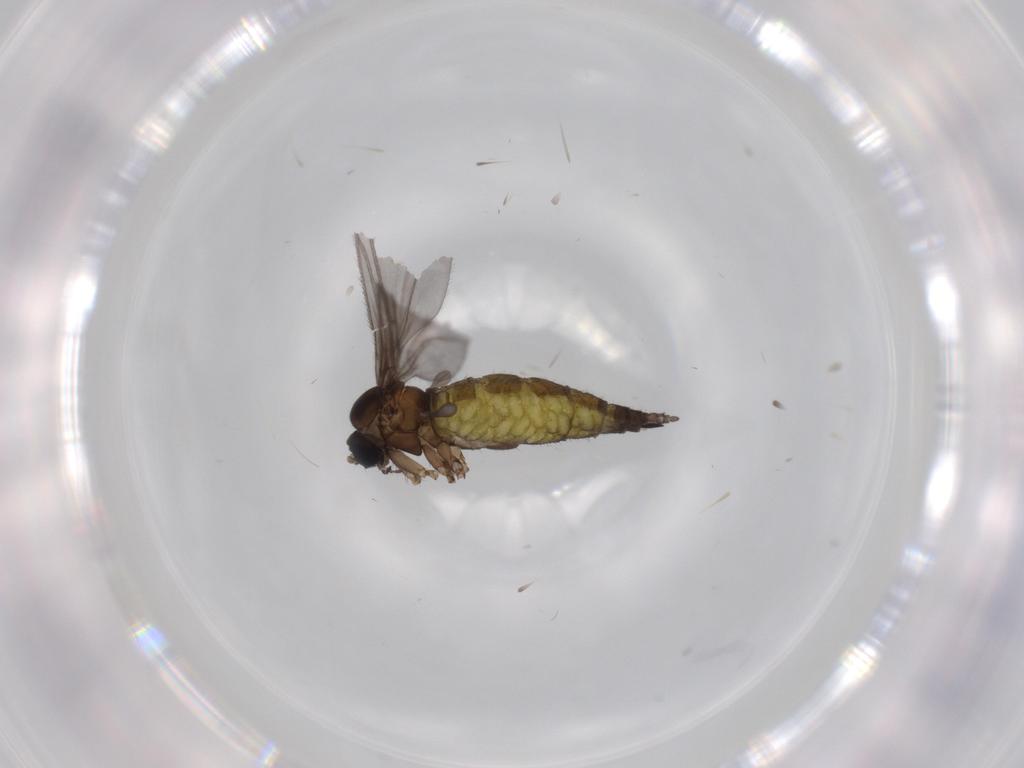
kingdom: Animalia
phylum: Arthropoda
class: Insecta
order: Diptera
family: Sciaridae
